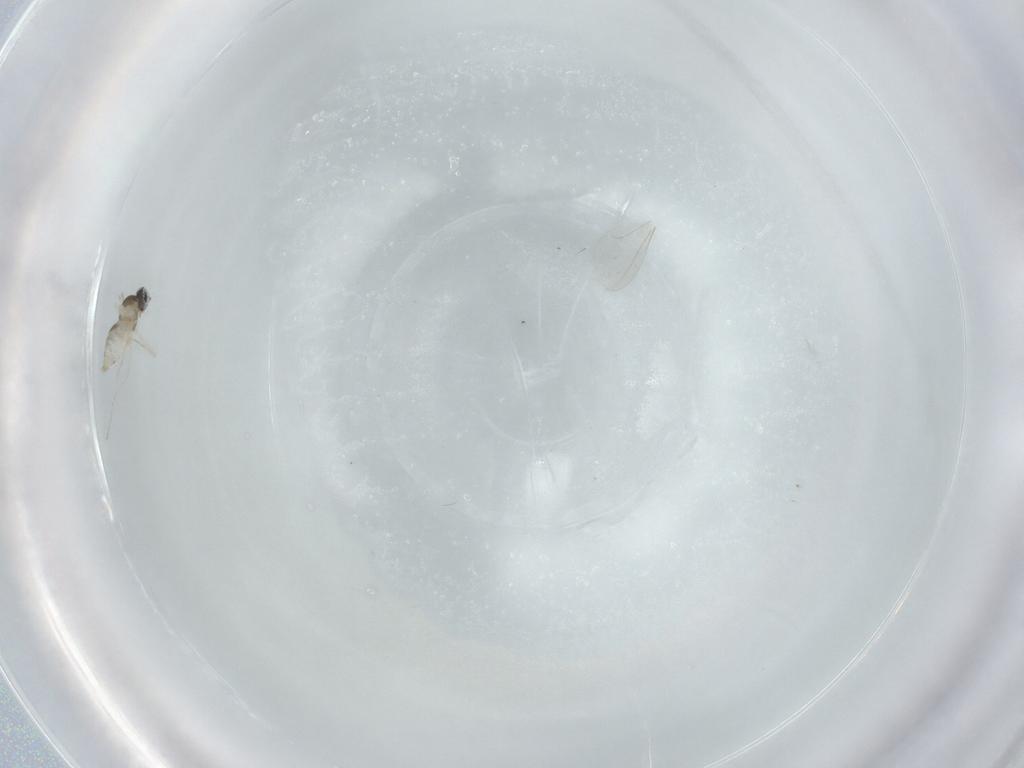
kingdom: Animalia
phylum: Arthropoda
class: Insecta
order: Diptera
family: Cecidomyiidae
